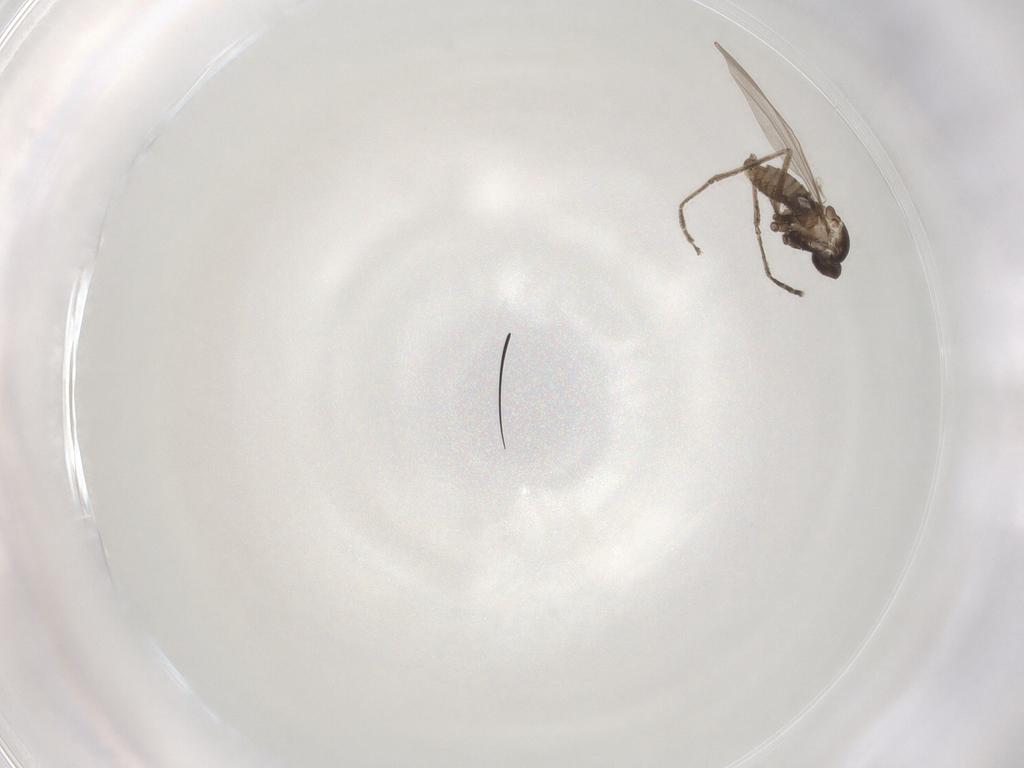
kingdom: Animalia
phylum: Arthropoda
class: Insecta
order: Diptera
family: Cecidomyiidae
